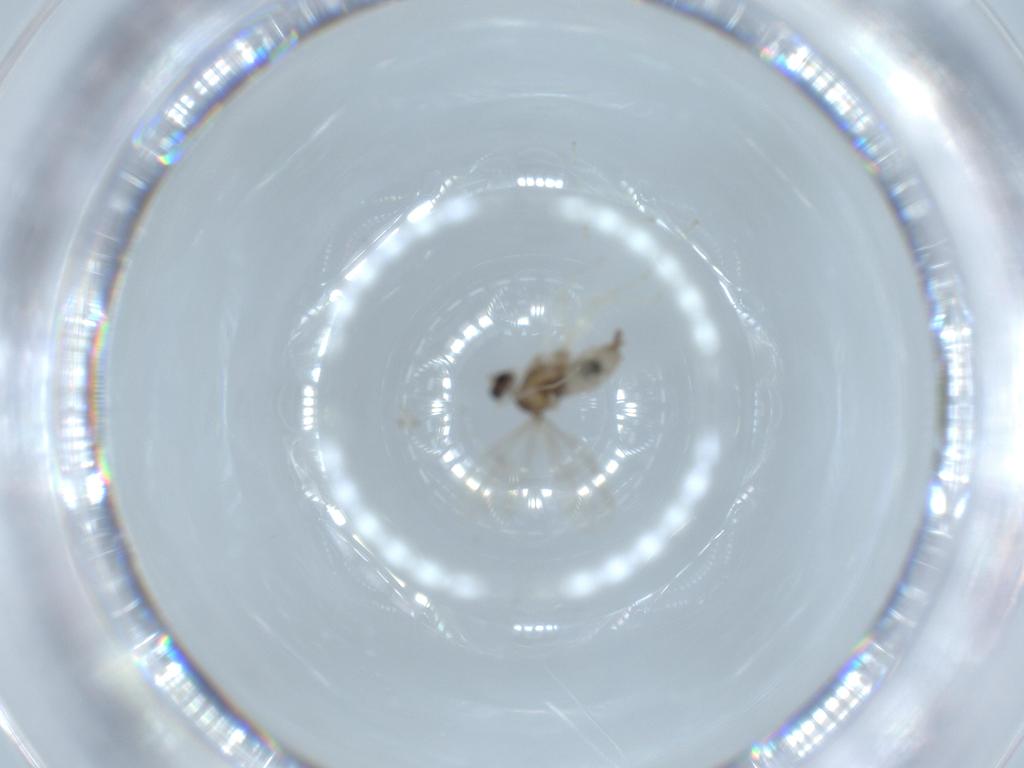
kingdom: Animalia
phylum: Arthropoda
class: Insecta
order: Diptera
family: Cecidomyiidae
